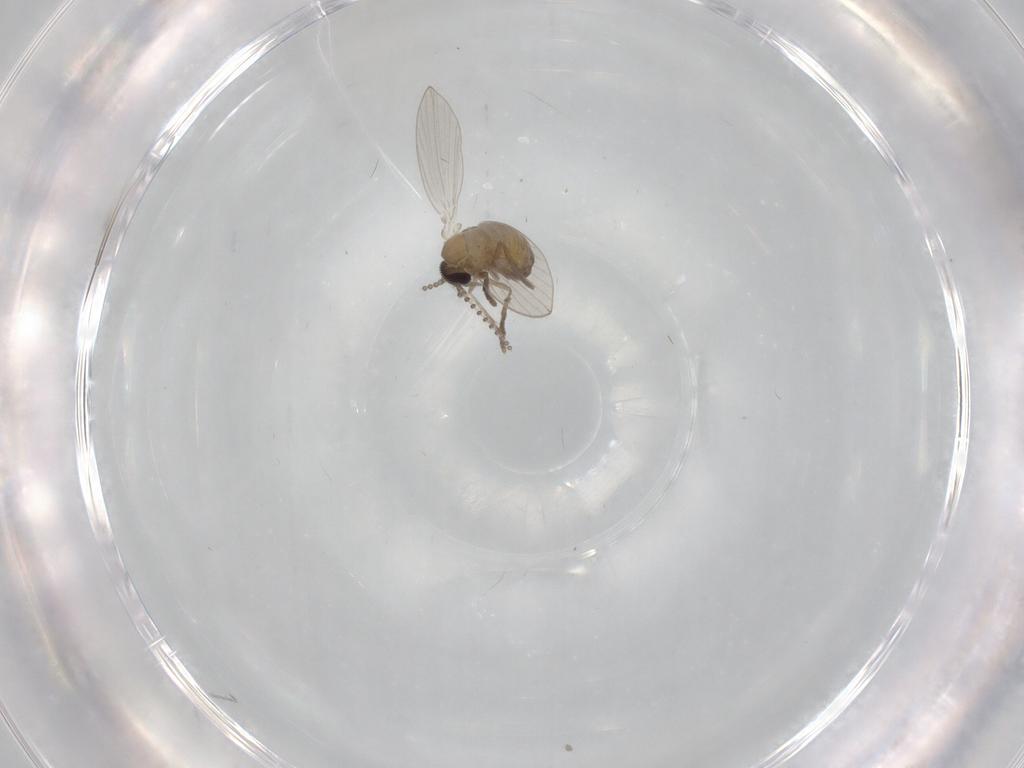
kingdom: Animalia
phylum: Arthropoda
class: Insecta
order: Diptera
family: Psychodidae
